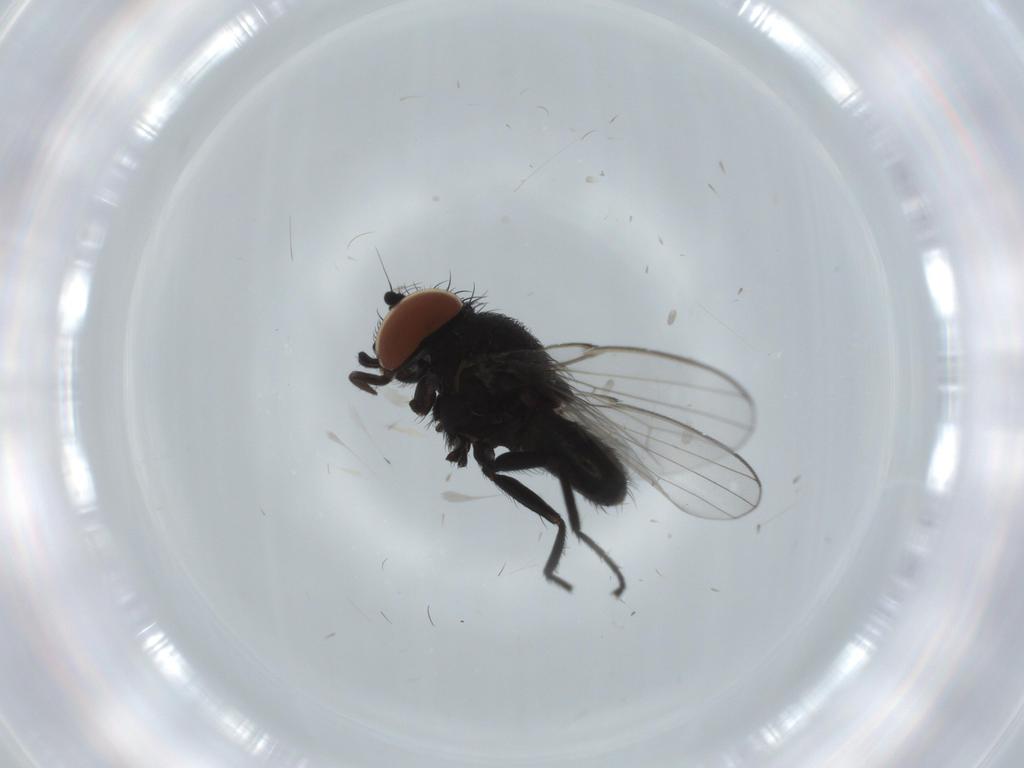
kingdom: Animalia
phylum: Arthropoda
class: Insecta
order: Diptera
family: Milichiidae
